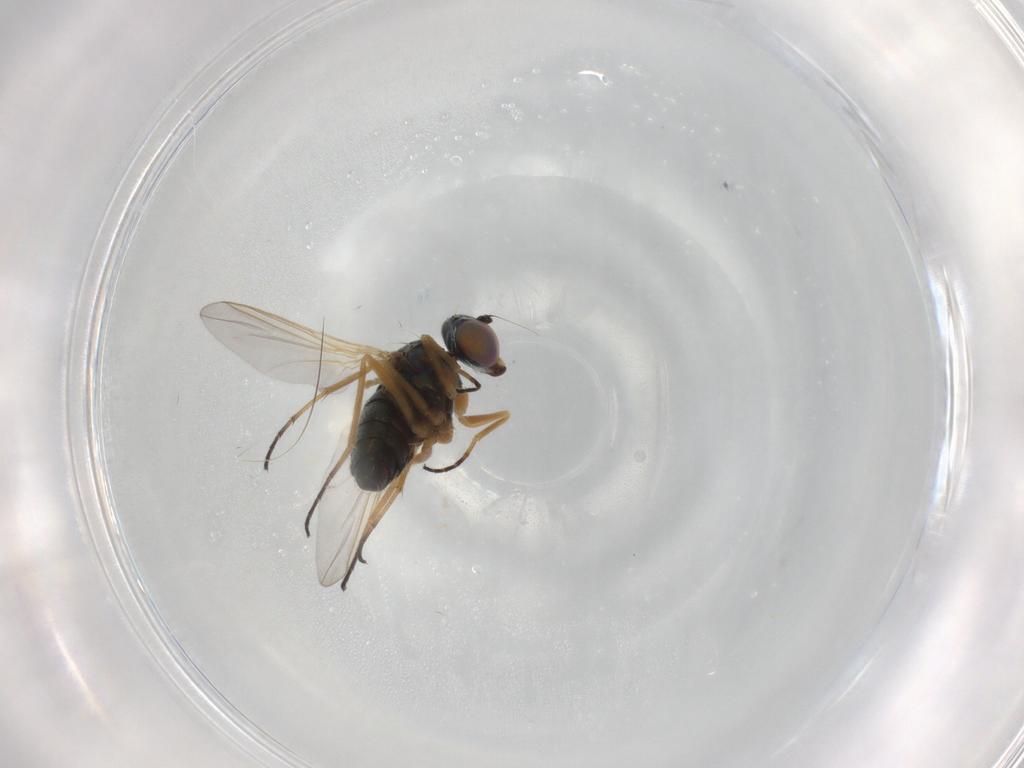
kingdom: Animalia
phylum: Arthropoda
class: Insecta
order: Diptera
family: Dolichopodidae
